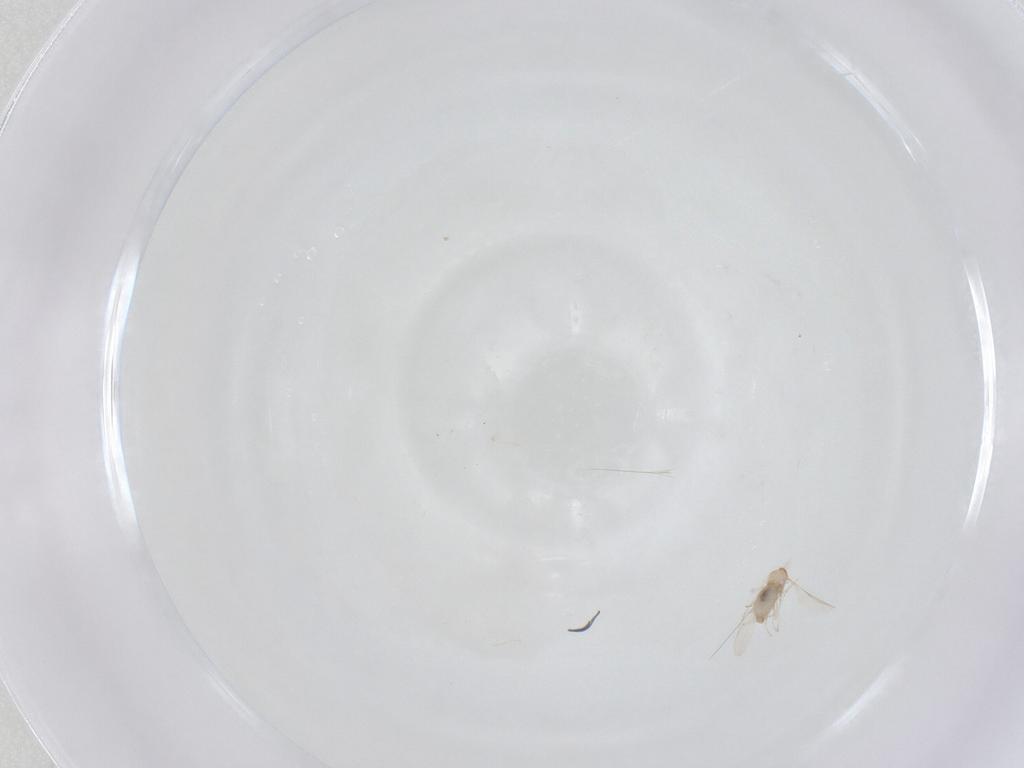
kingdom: Animalia
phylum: Arthropoda
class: Insecta
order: Diptera
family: Cecidomyiidae
